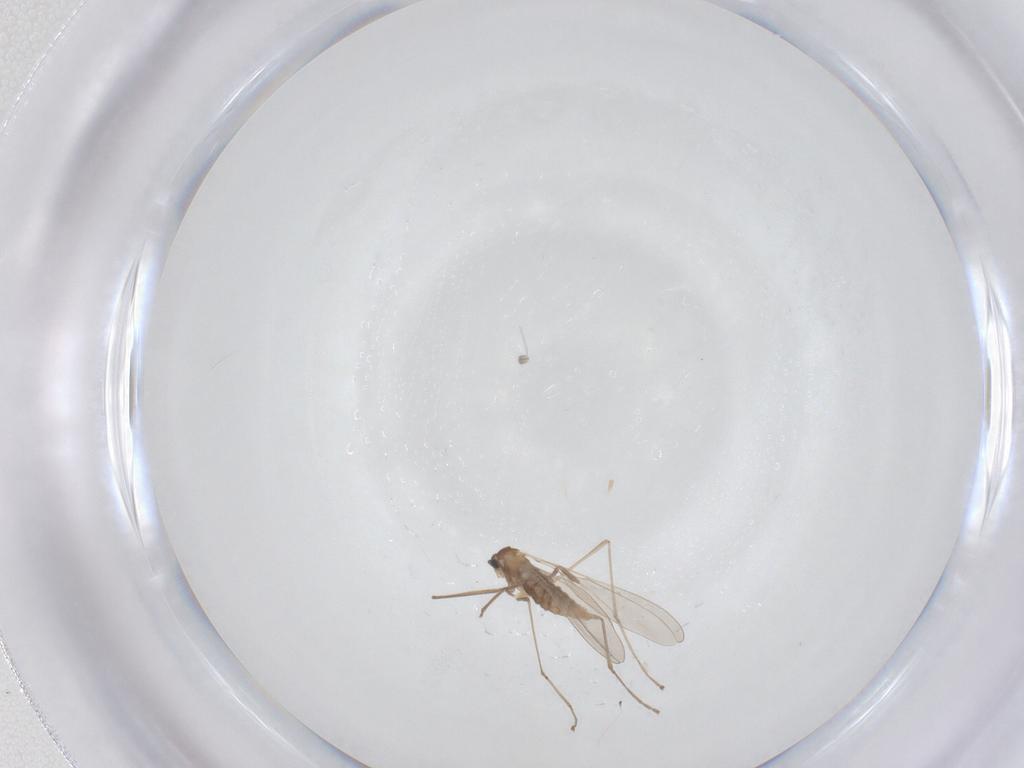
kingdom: Animalia
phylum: Arthropoda
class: Insecta
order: Diptera
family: Cecidomyiidae
